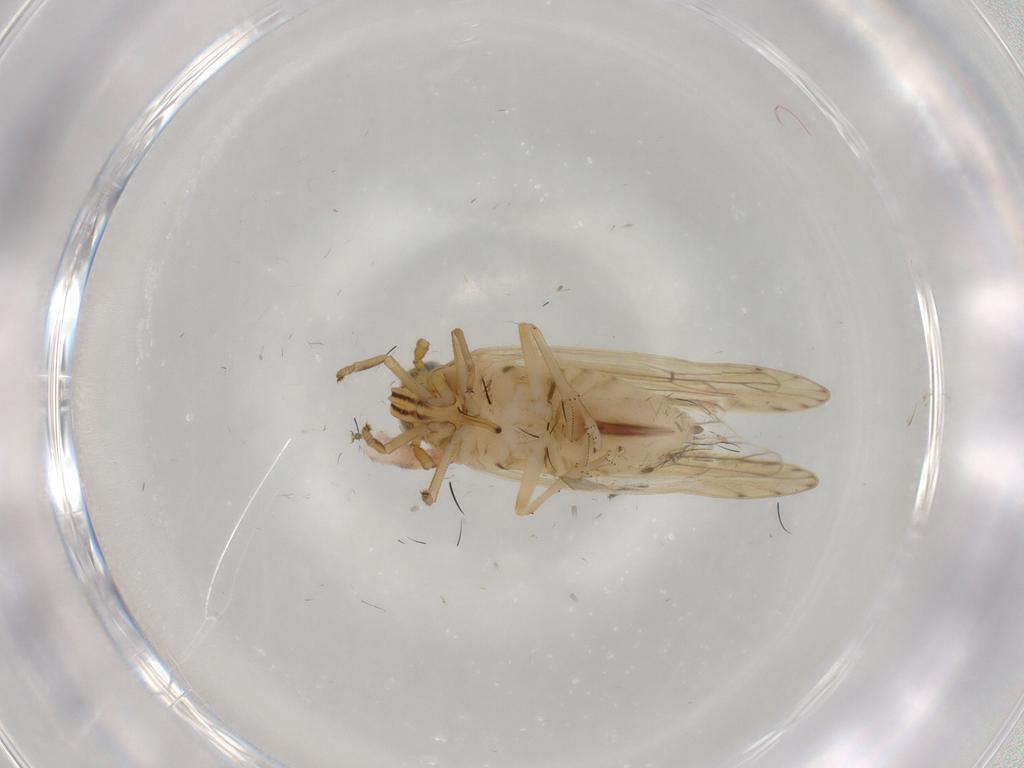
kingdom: Animalia
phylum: Arthropoda
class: Insecta
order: Hemiptera
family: Delphacidae
